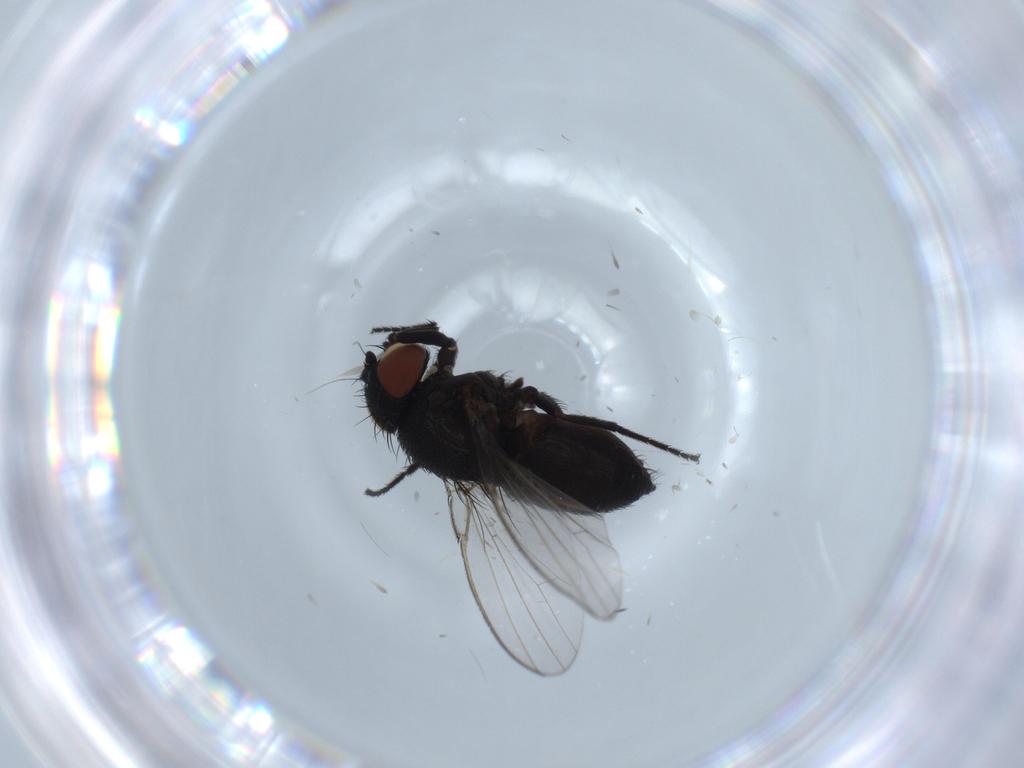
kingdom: Animalia
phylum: Arthropoda
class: Insecta
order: Diptera
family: Milichiidae
